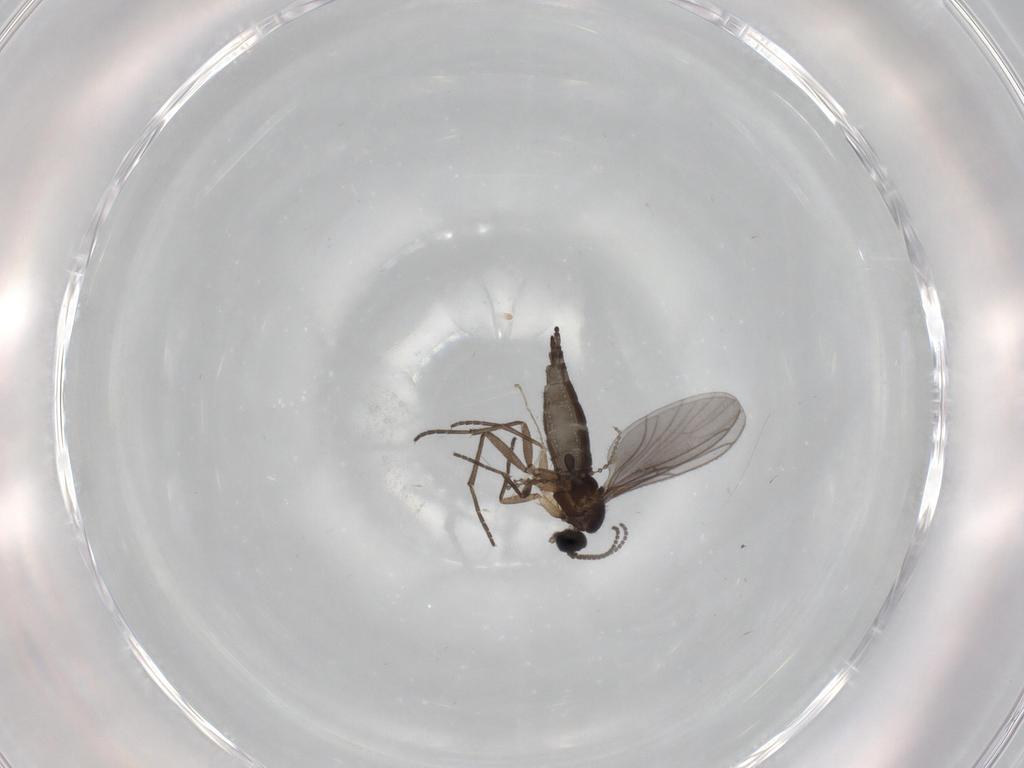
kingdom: Animalia
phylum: Arthropoda
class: Insecta
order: Diptera
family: Sciaridae
